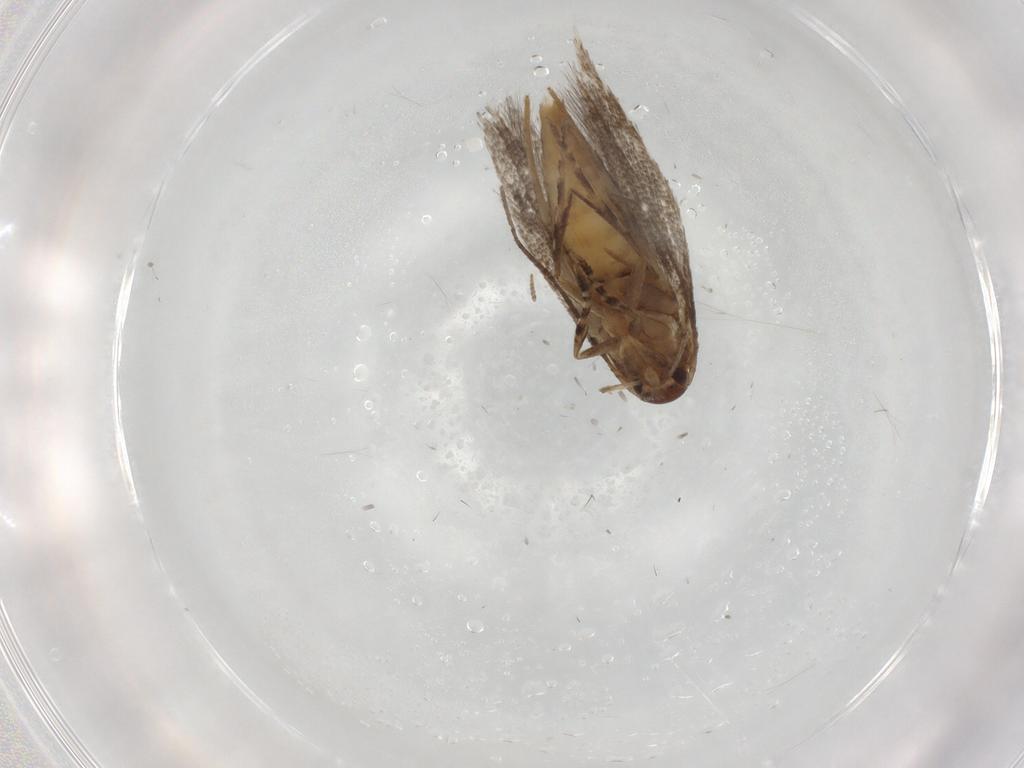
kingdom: Animalia
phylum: Arthropoda
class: Insecta
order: Lepidoptera
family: Elachistidae
